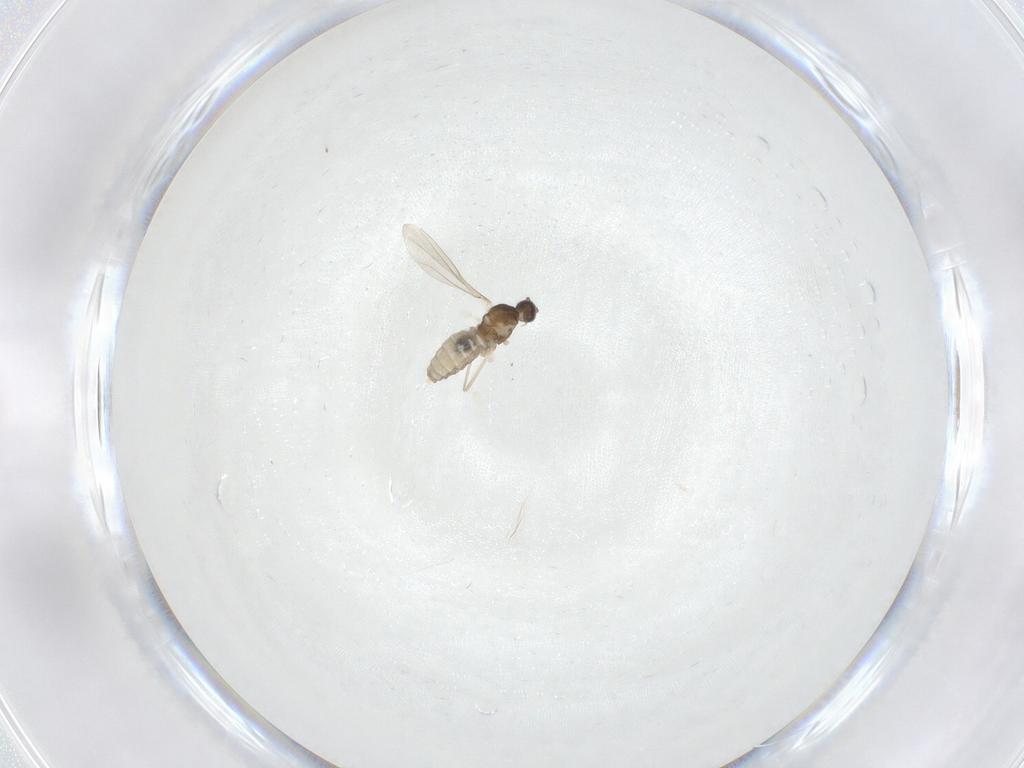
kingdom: Animalia
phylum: Arthropoda
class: Insecta
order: Diptera
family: Cecidomyiidae
